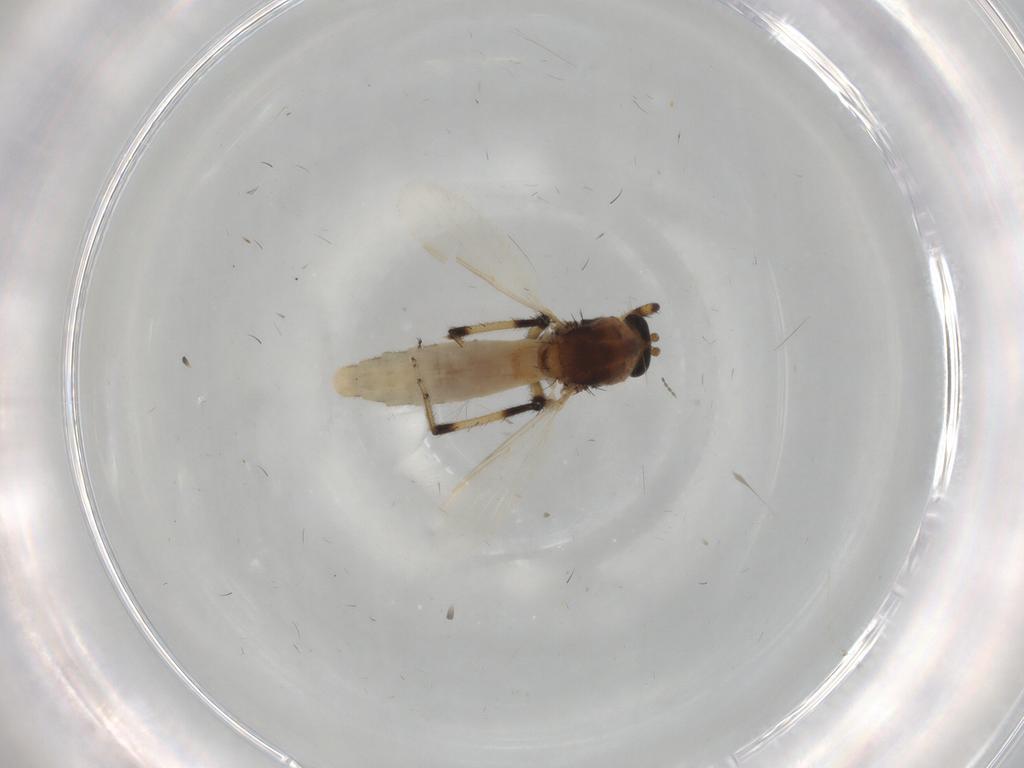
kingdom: Animalia
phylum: Arthropoda
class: Insecta
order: Diptera
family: Ceratopogonidae
